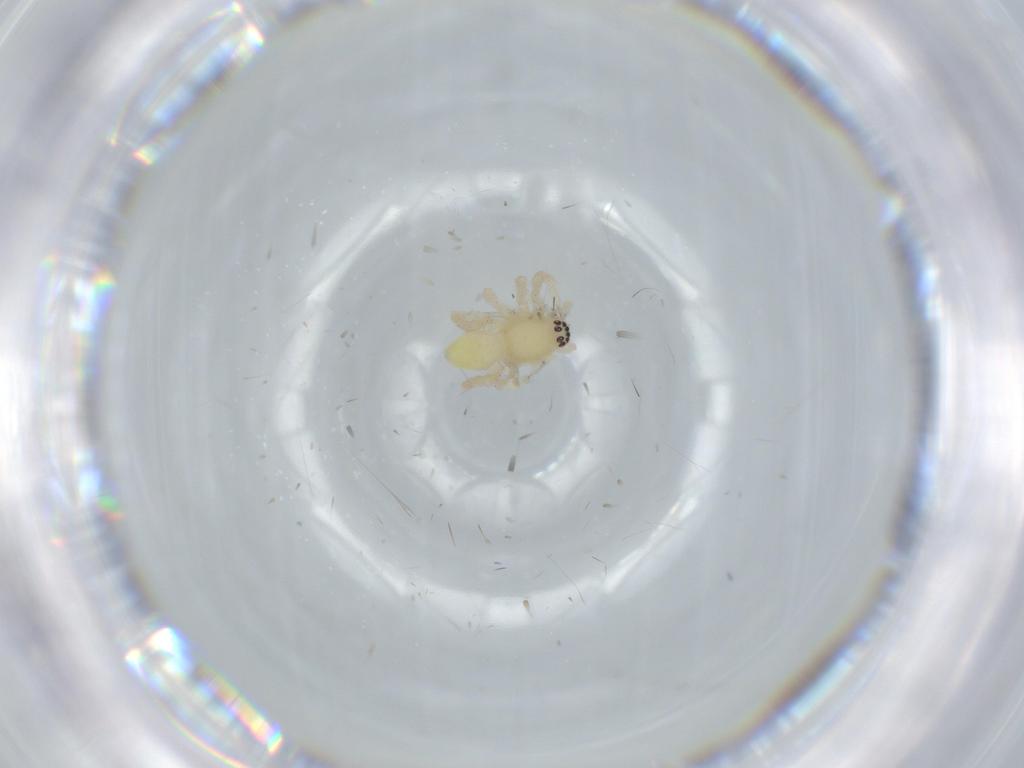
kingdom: Animalia
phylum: Arthropoda
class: Arachnida
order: Araneae
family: Anyphaenidae
